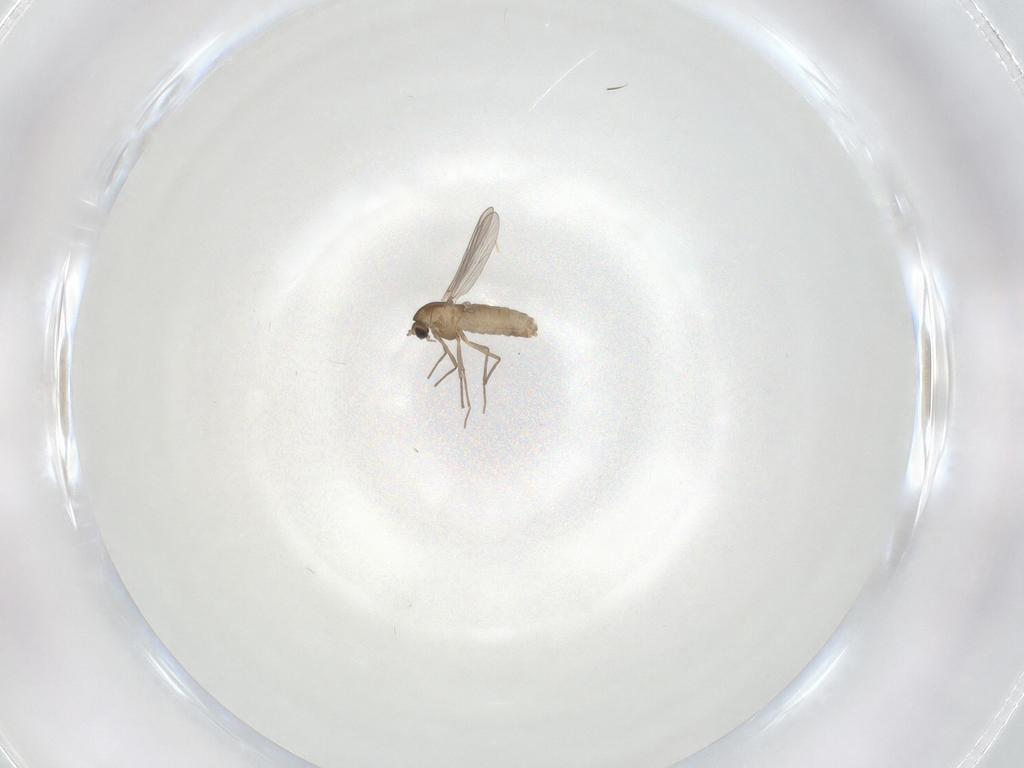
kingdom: Animalia
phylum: Arthropoda
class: Insecta
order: Diptera
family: Chironomidae
